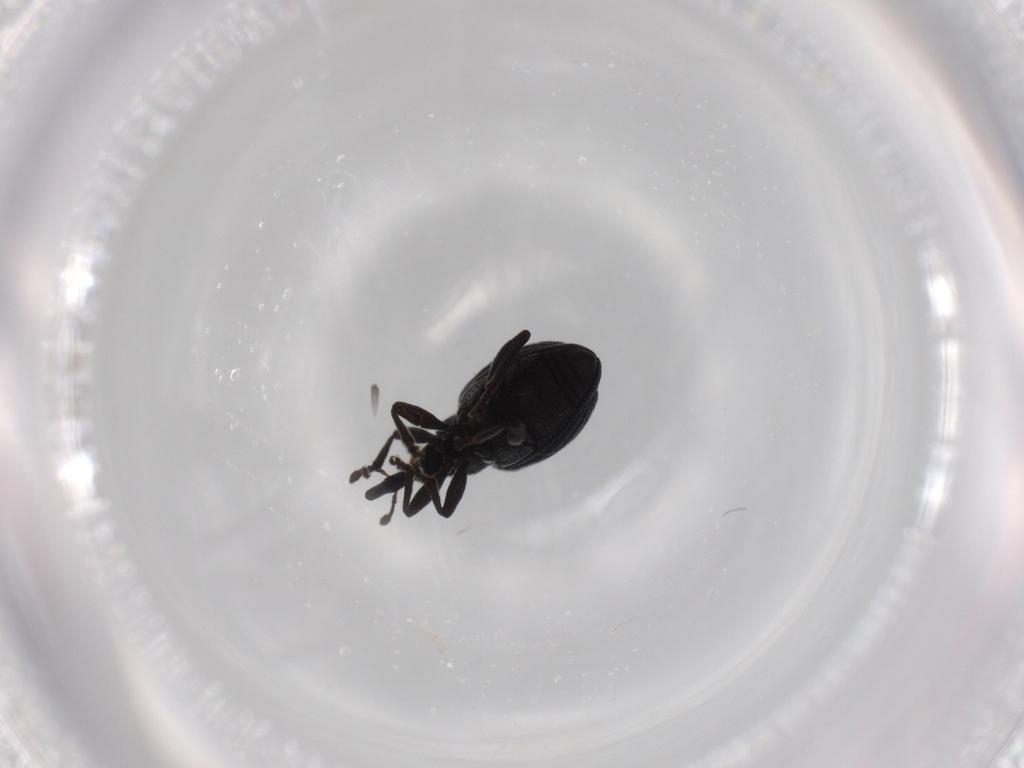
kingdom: Animalia
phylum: Arthropoda
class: Insecta
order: Coleoptera
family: Brentidae
